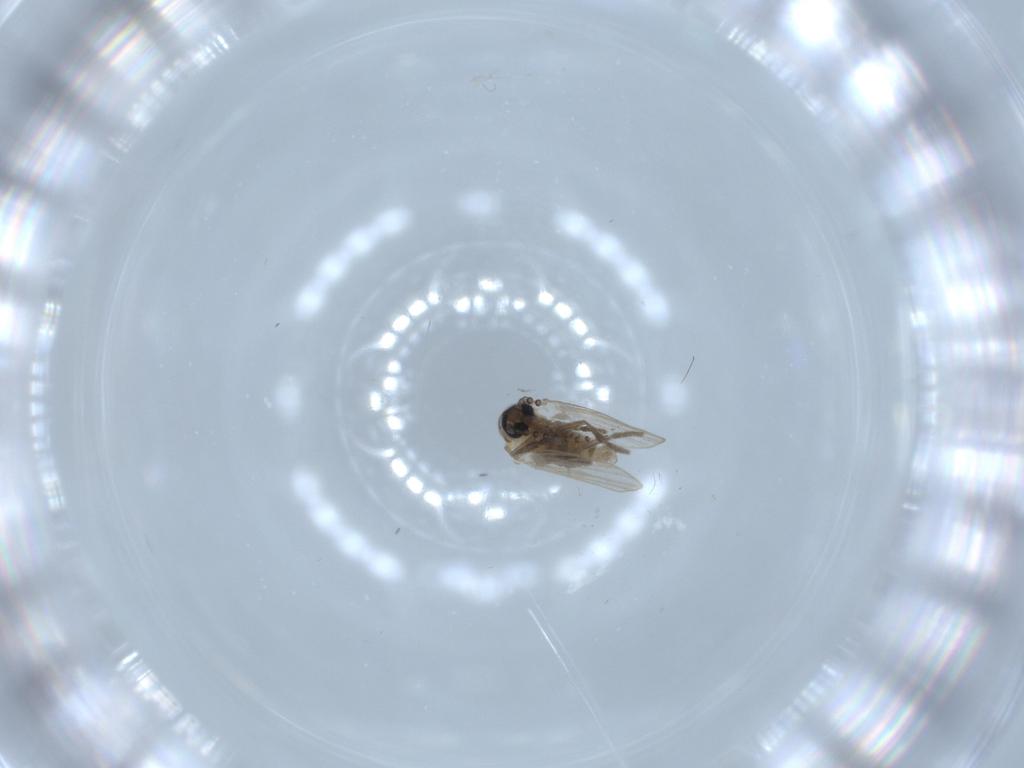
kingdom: Animalia
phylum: Arthropoda
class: Insecta
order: Diptera
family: Psychodidae
